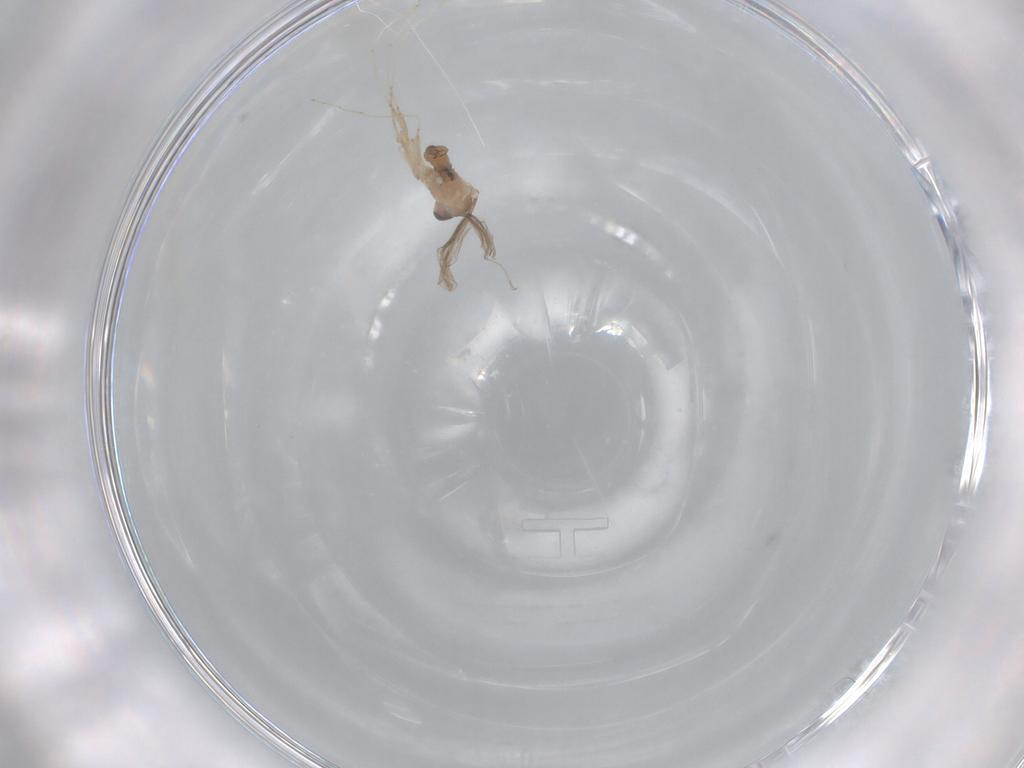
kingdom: Animalia
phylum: Arthropoda
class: Insecta
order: Diptera
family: Cecidomyiidae
